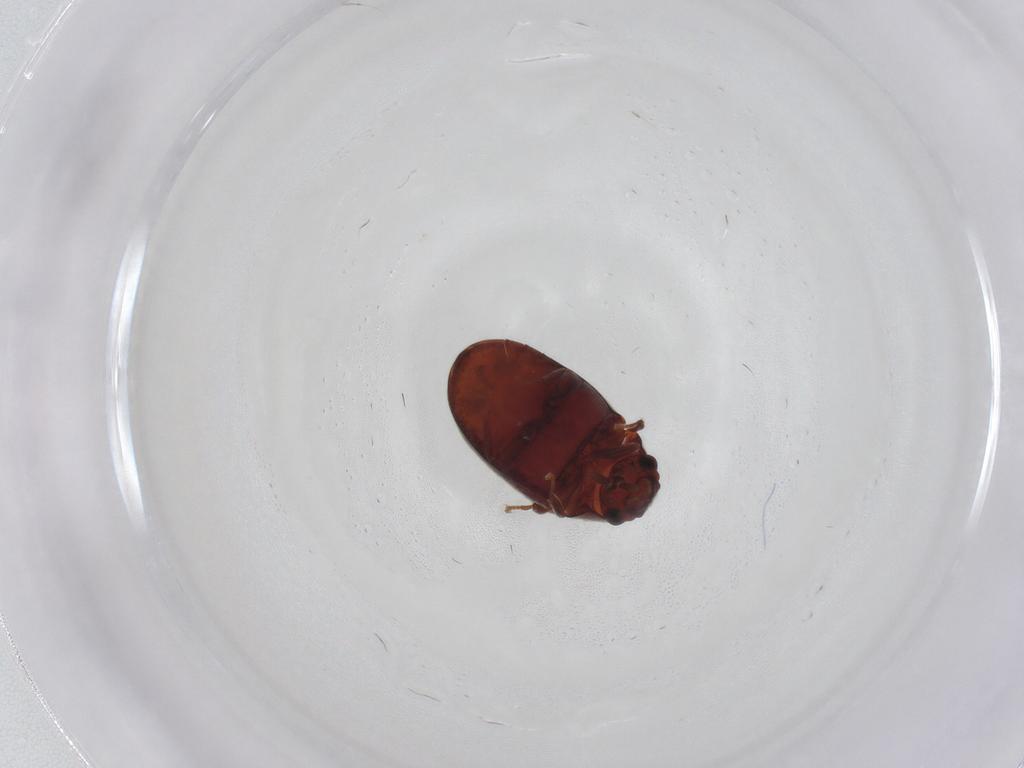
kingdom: Animalia
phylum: Arthropoda
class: Insecta
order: Coleoptera
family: Ptinidae
